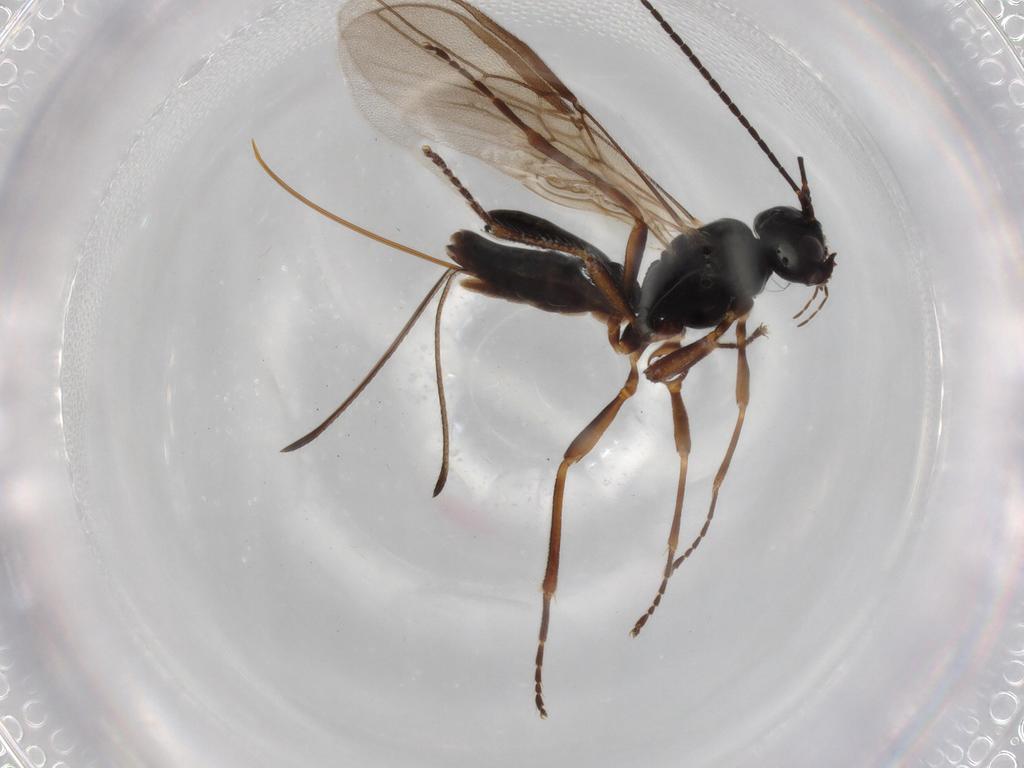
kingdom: Animalia
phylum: Arthropoda
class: Insecta
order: Hymenoptera
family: Braconidae
